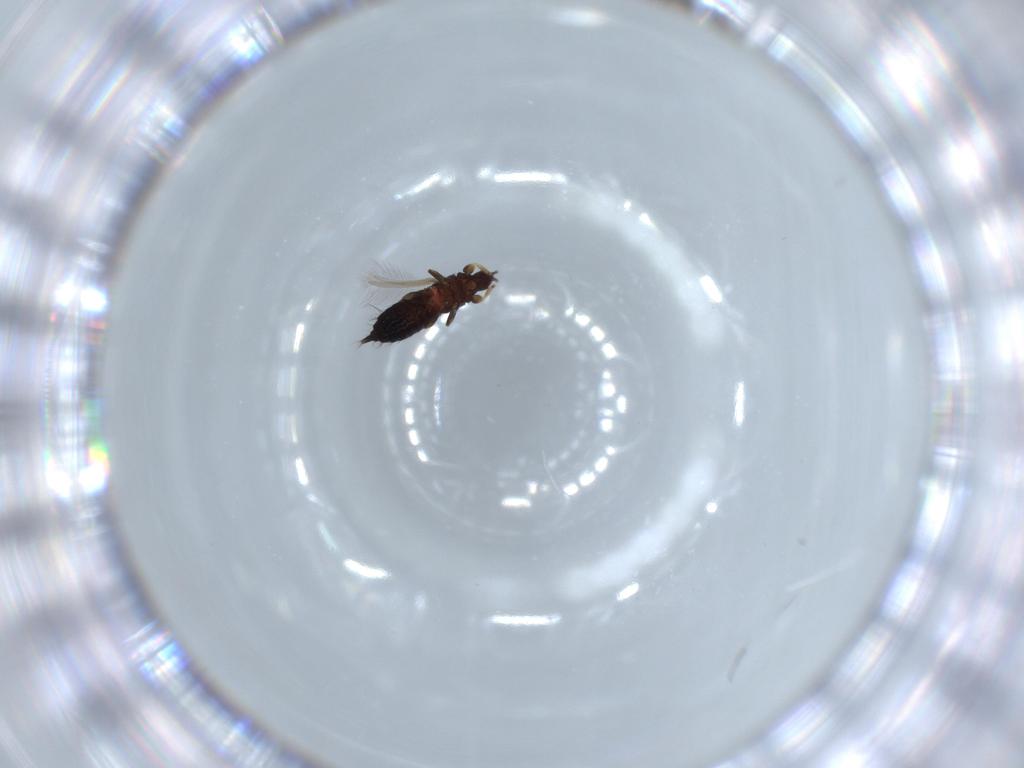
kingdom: Animalia
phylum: Arthropoda
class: Insecta
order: Thysanoptera
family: Phlaeothripidae
